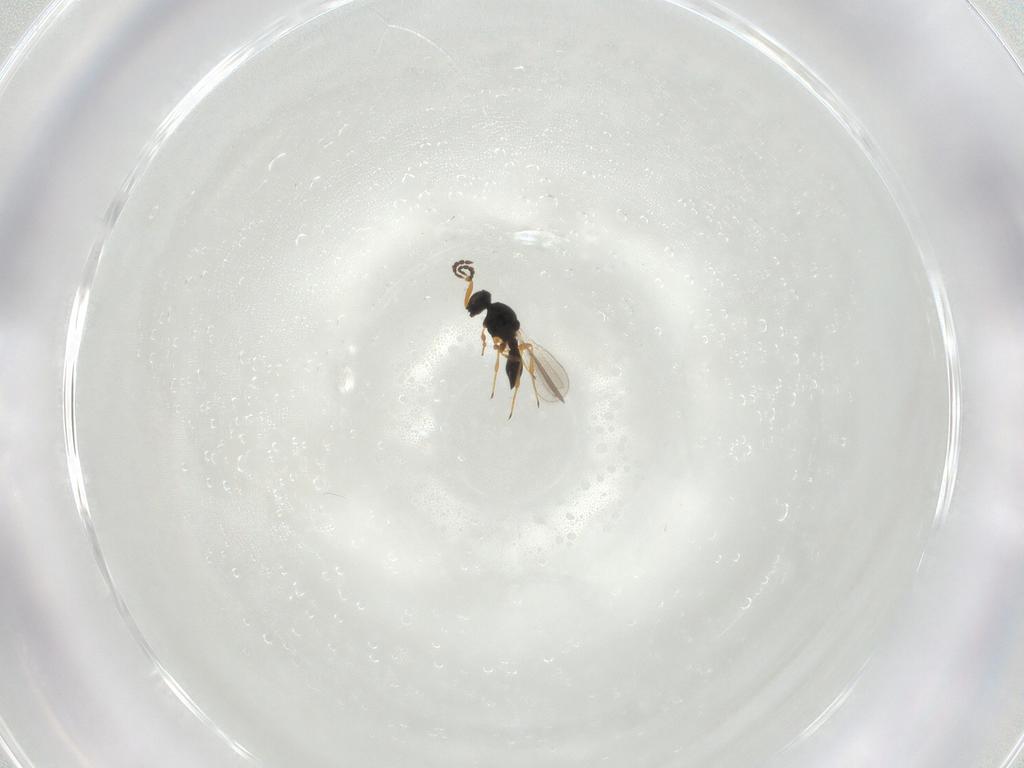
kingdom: Animalia
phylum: Arthropoda
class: Insecta
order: Hymenoptera
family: Platygastridae
